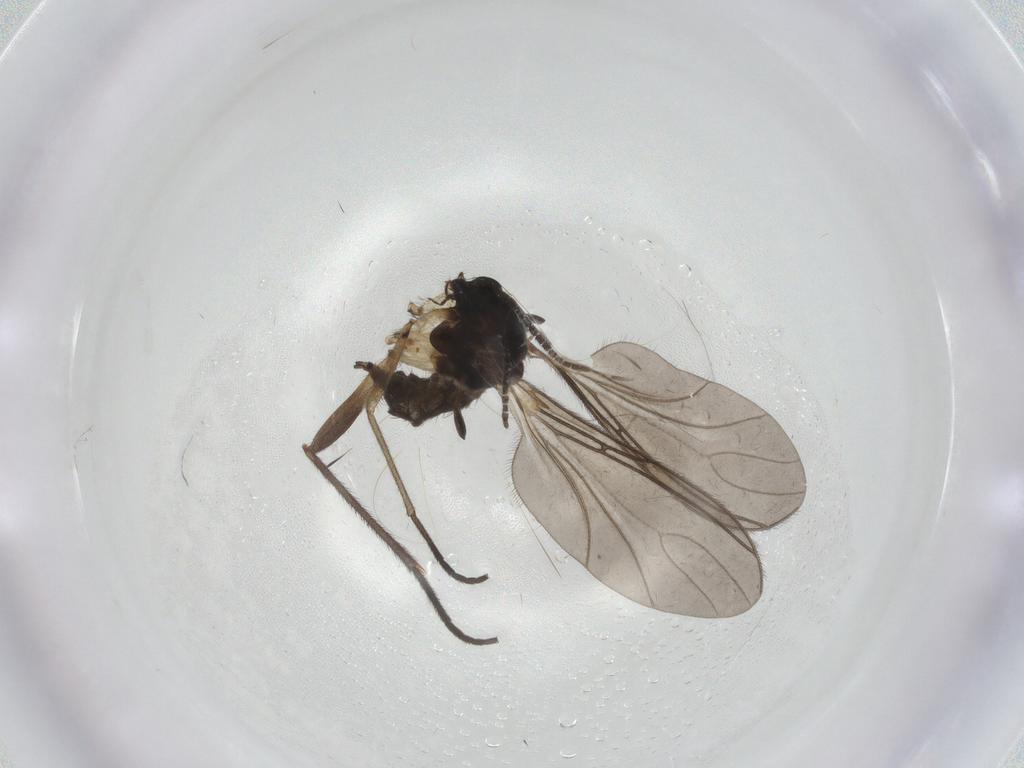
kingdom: Animalia
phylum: Arthropoda
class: Insecta
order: Diptera
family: Sciaridae
